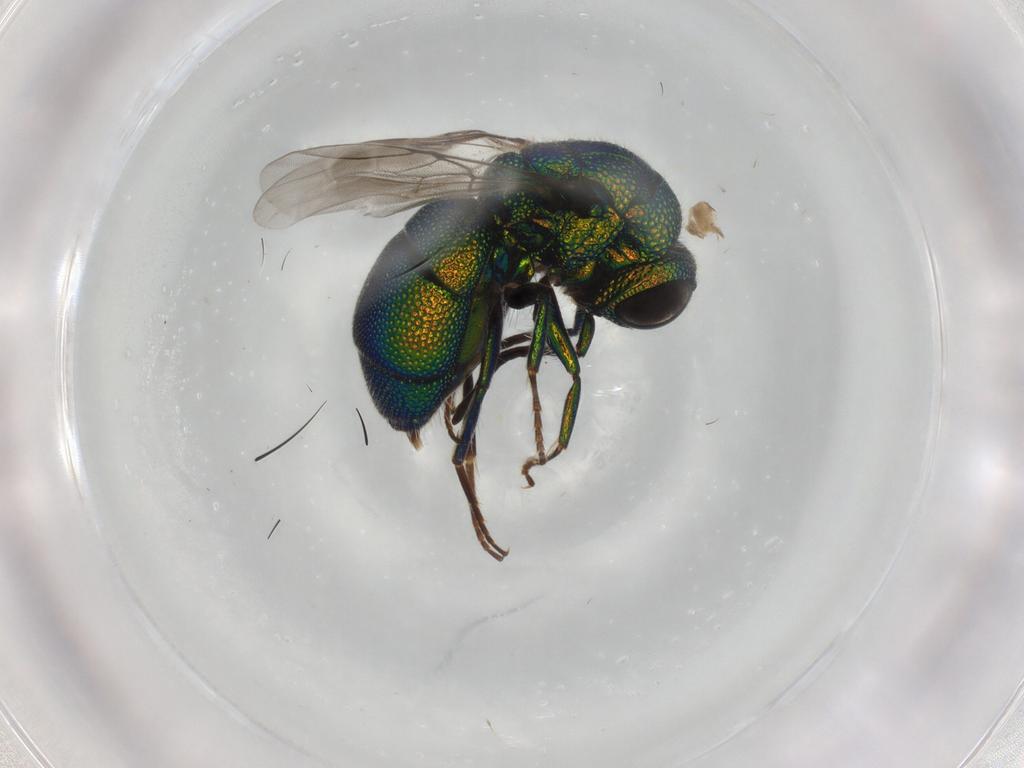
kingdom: Animalia
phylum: Arthropoda
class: Insecta
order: Hymenoptera
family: Chrysididae
